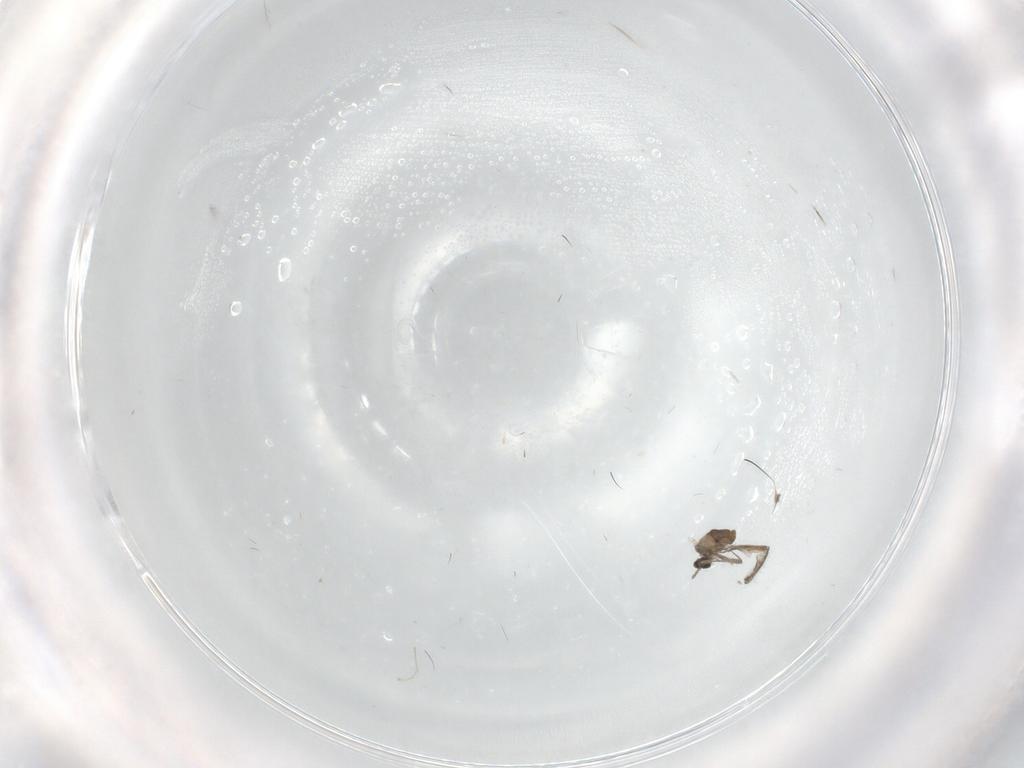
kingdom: Animalia
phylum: Arthropoda
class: Insecta
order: Diptera
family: Cecidomyiidae
